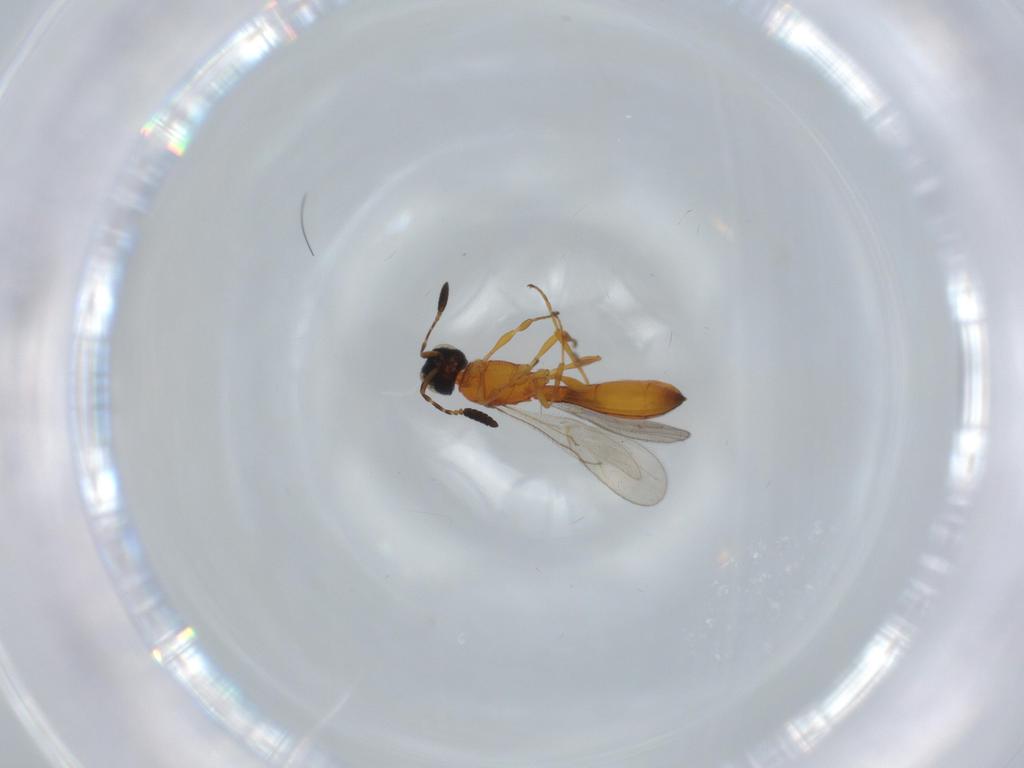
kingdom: Animalia
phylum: Arthropoda
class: Insecta
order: Hymenoptera
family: Scelionidae
